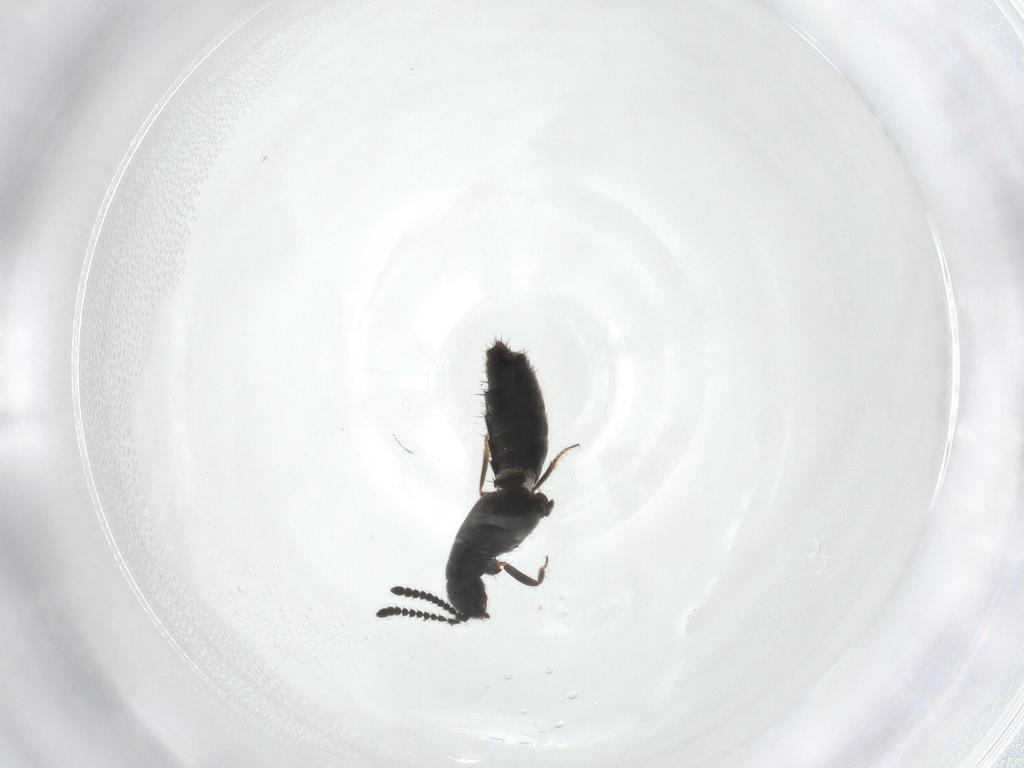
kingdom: Animalia
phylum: Arthropoda
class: Insecta
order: Coleoptera
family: Staphylinidae
